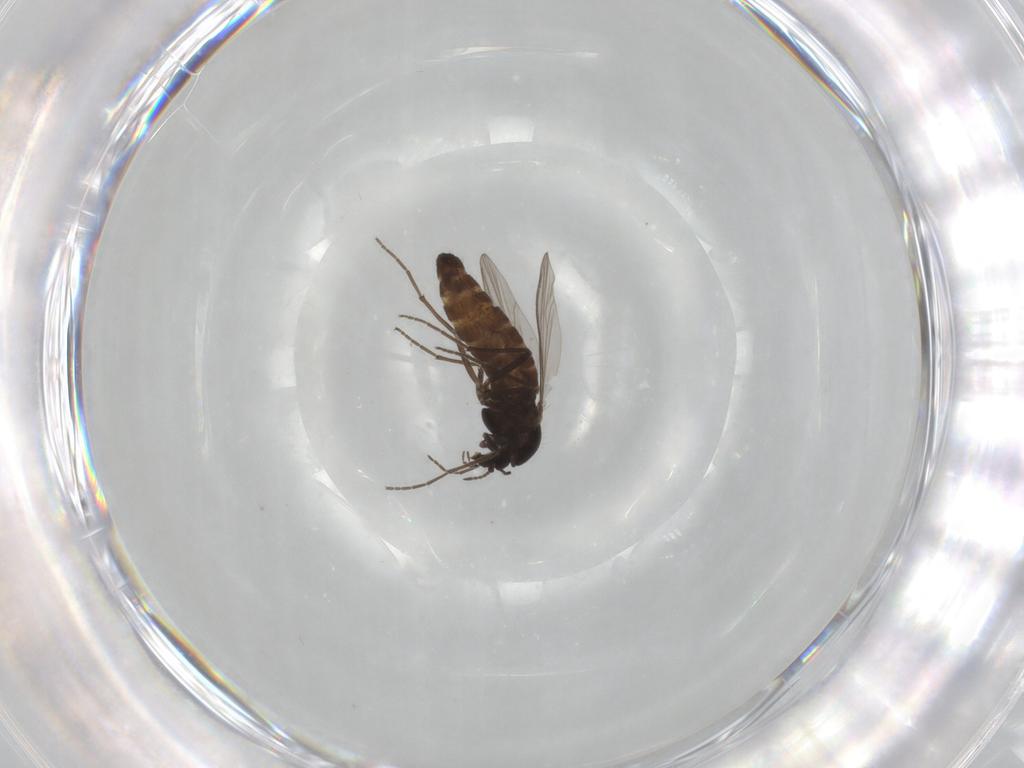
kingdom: Animalia
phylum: Arthropoda
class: Insecta
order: Diptera
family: Chironomidae
